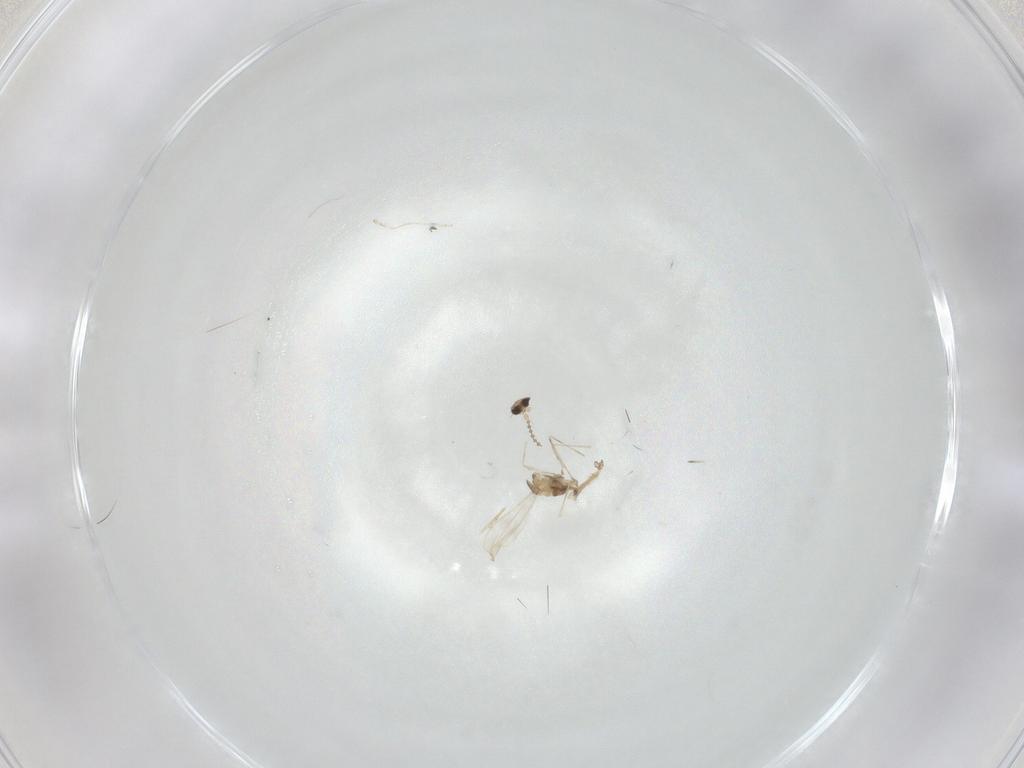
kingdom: Animalia
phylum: Arthropoda
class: Insecta
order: Diptera
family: Cecidomyiidae
